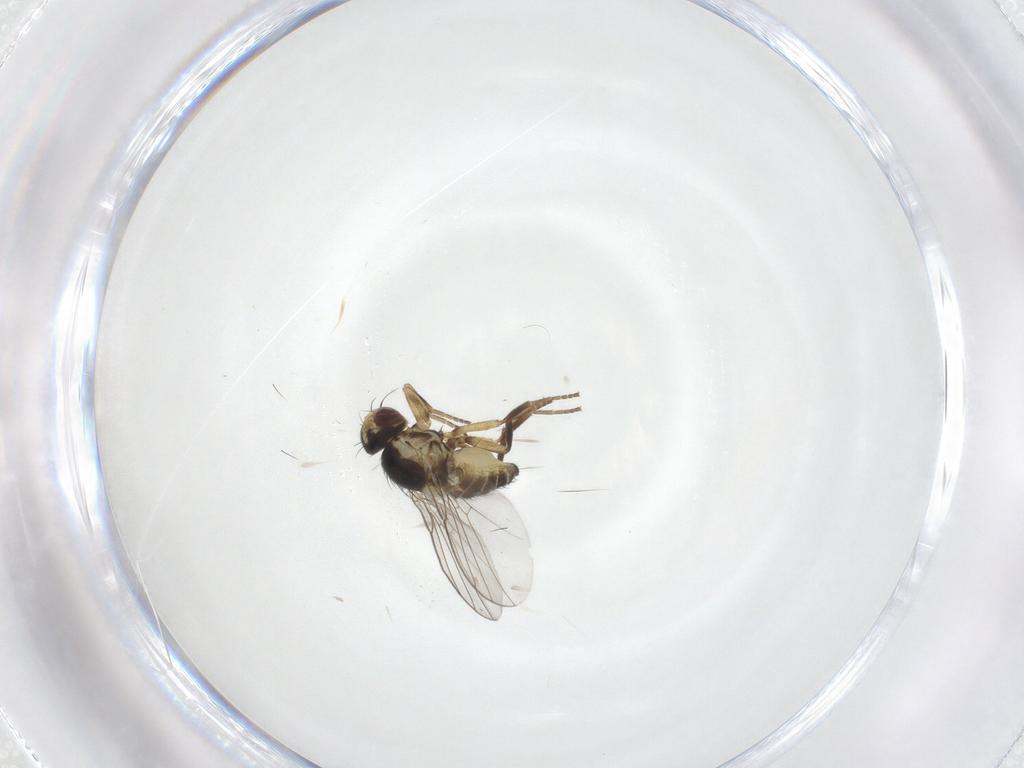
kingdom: Animalia
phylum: Arthropoda
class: Insecta
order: Diptera
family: Agromyzidae
